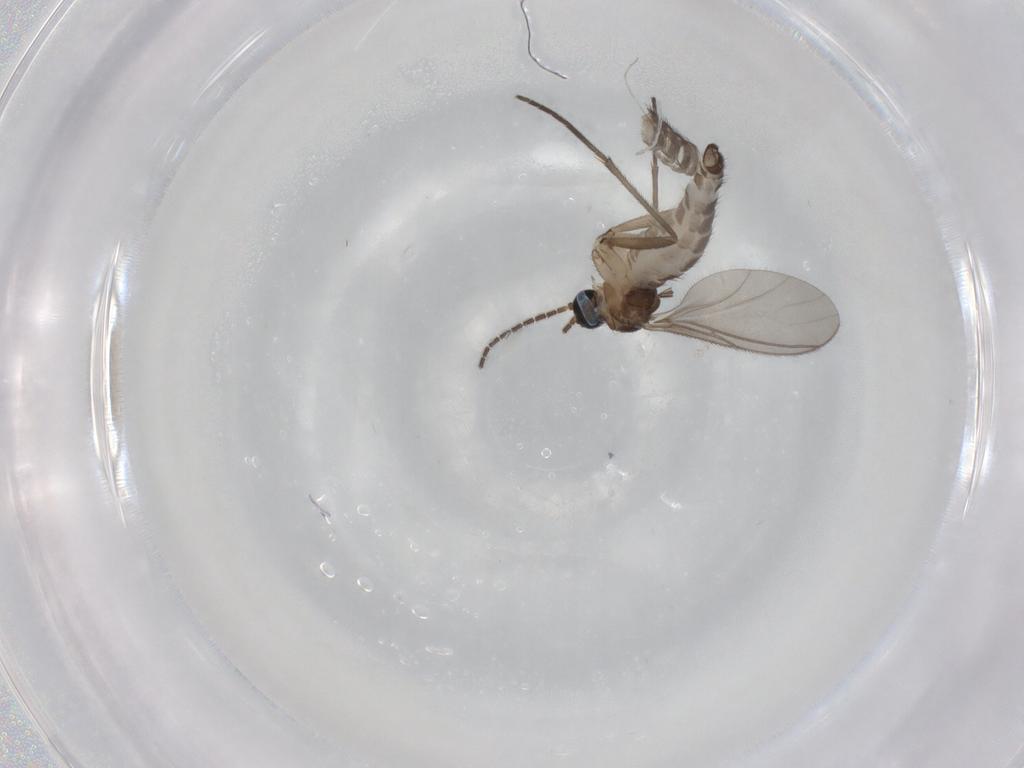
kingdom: Animalia
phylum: Arthropoda
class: Insecta
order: Diptera
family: Sciaridae
